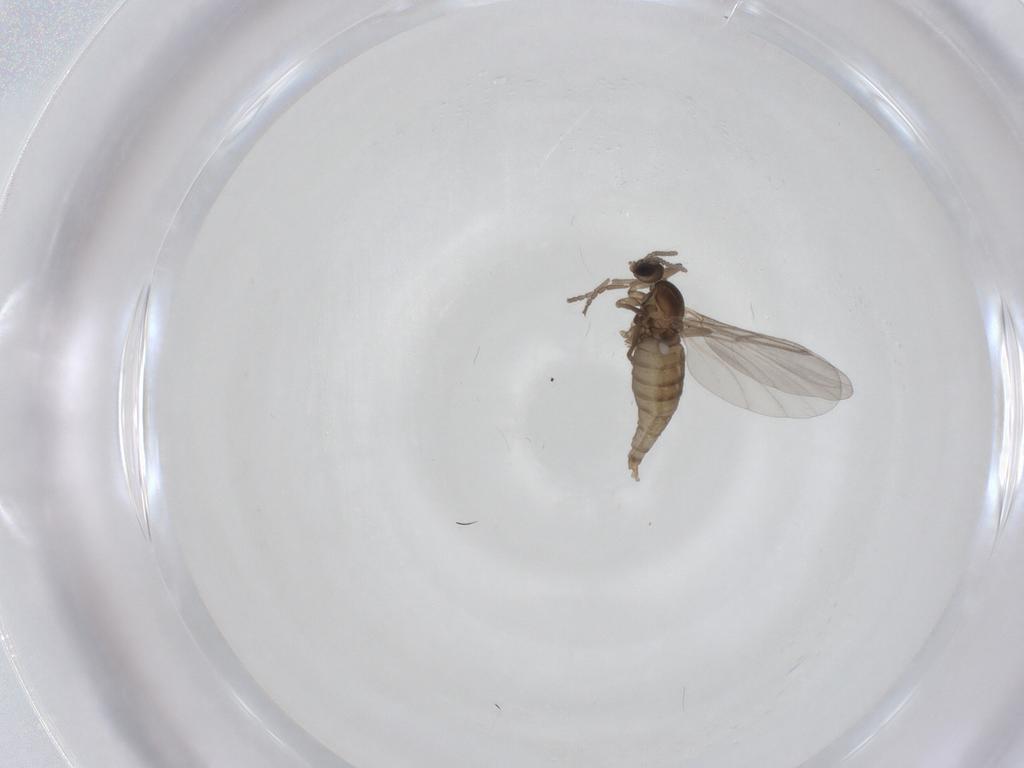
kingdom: Animalia
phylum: Arthropoda
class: Insecta
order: Diptera
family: Cecidomyiidae
